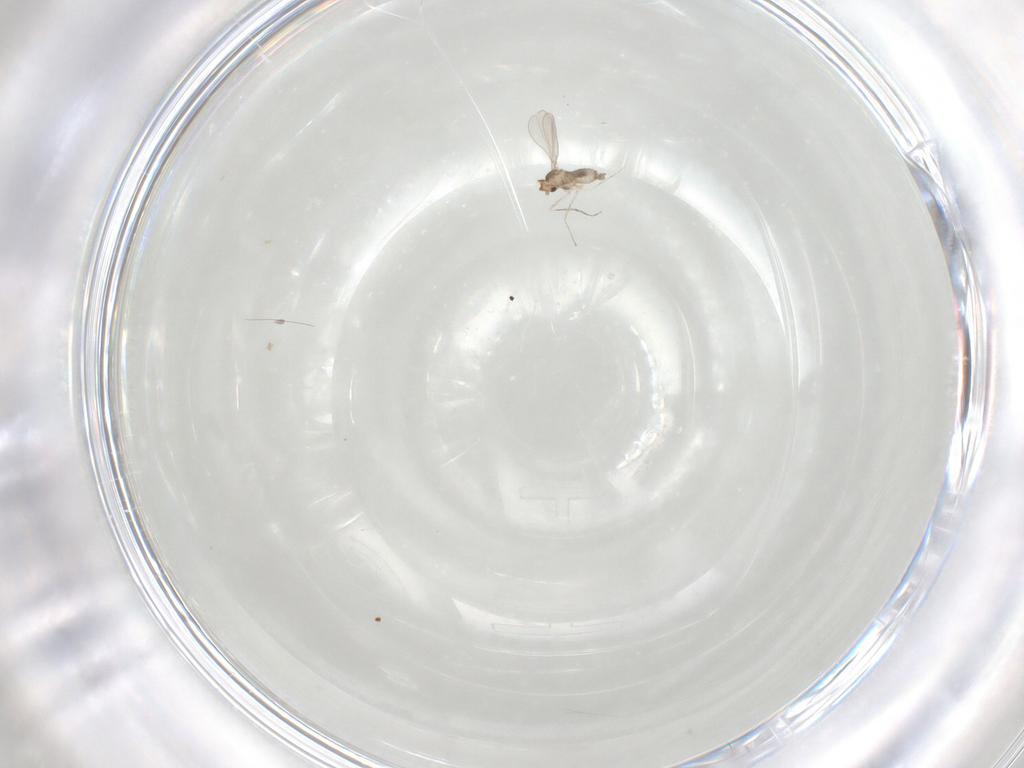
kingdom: Animalia
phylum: Arthropoda
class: Insecta
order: Diptera
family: Cecidomyiidae
